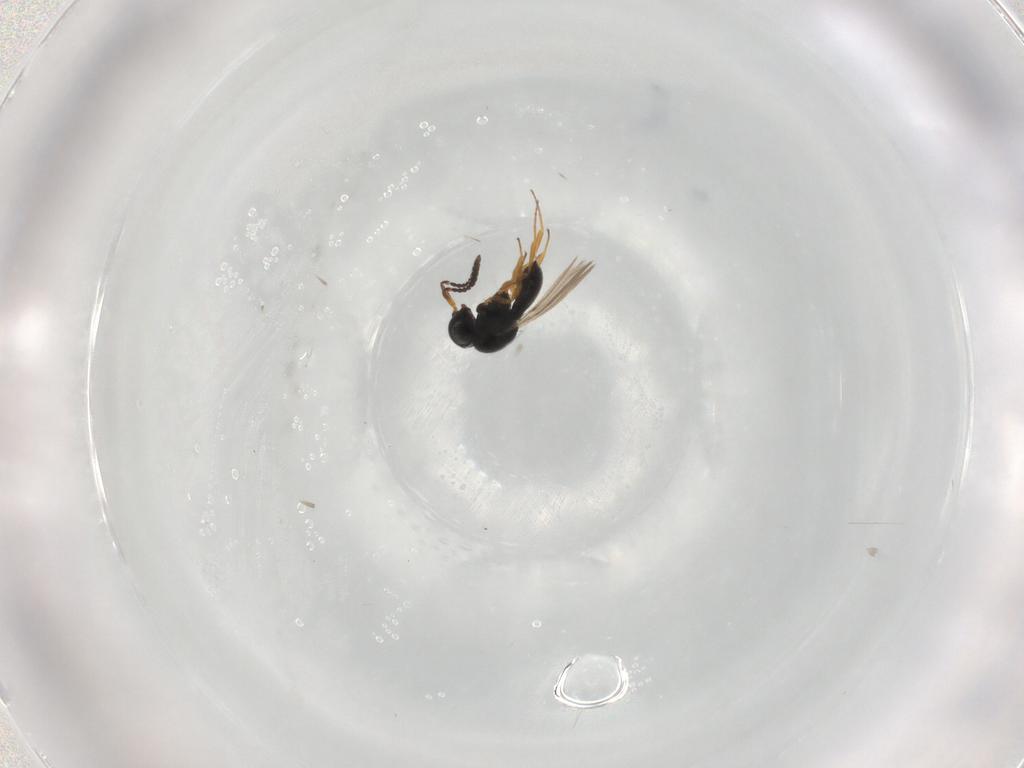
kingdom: Animalia
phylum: Arthropoda
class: Insecta
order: Hymenoptera
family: Scelionidae
